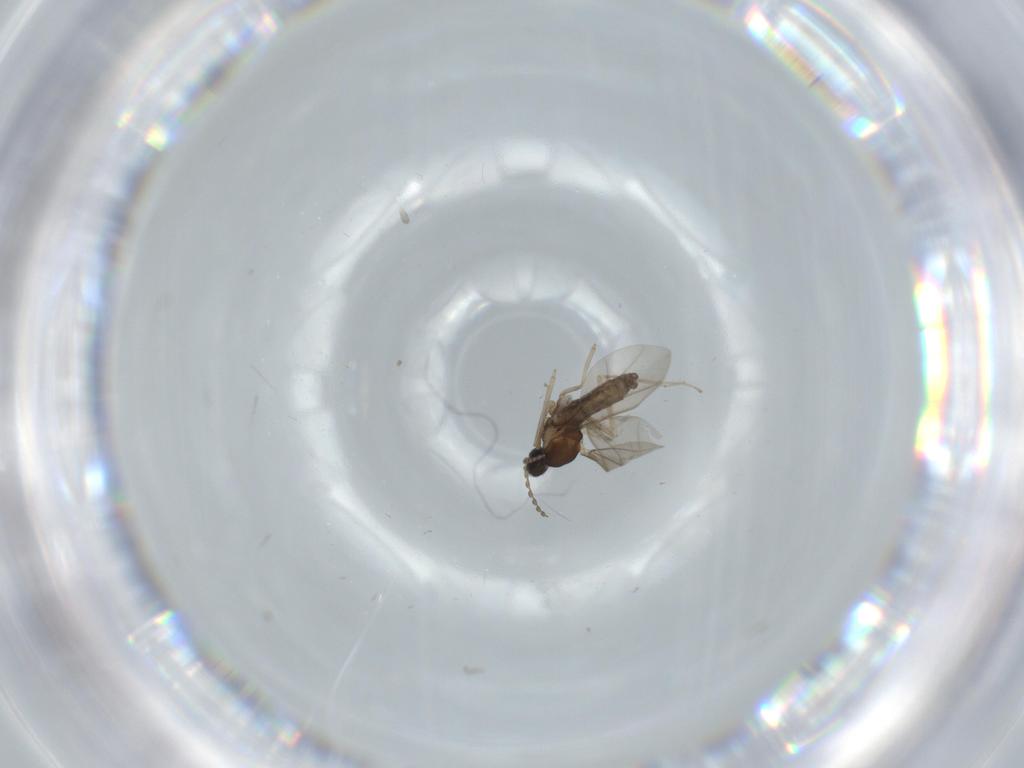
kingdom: Animalia
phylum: Arthropoda
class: Insecta
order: Diptera
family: Cecidomyiidae
